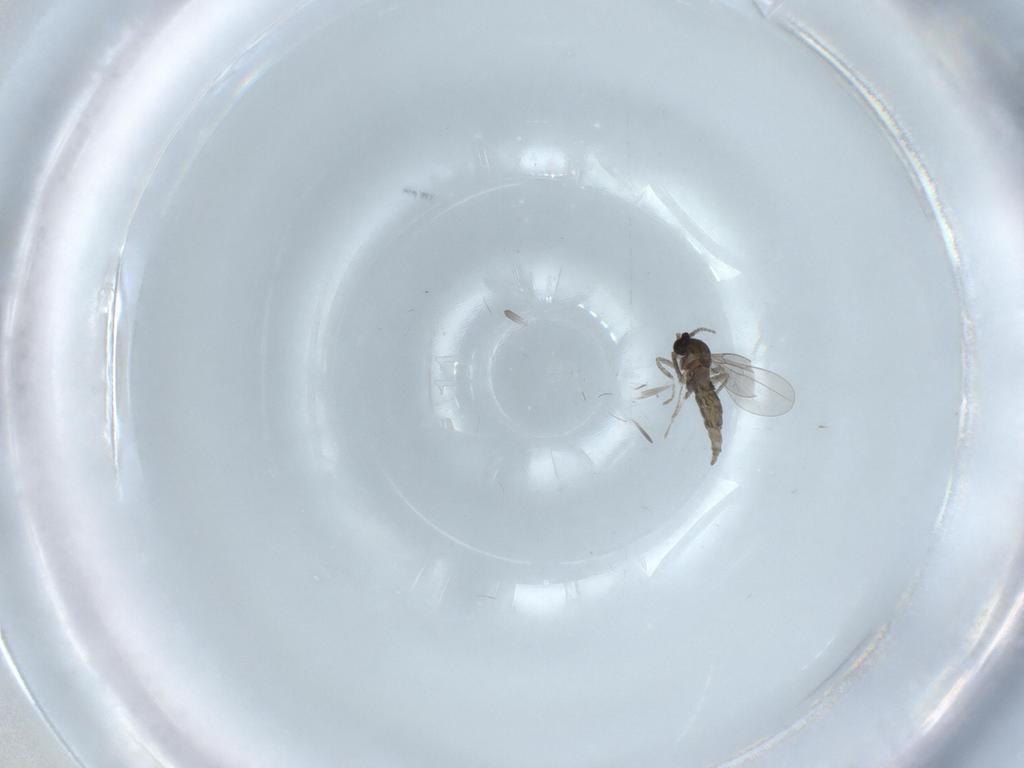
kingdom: Animalia
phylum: Arthropoda
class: Insecta
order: Diptera
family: Cecidomyiidae
